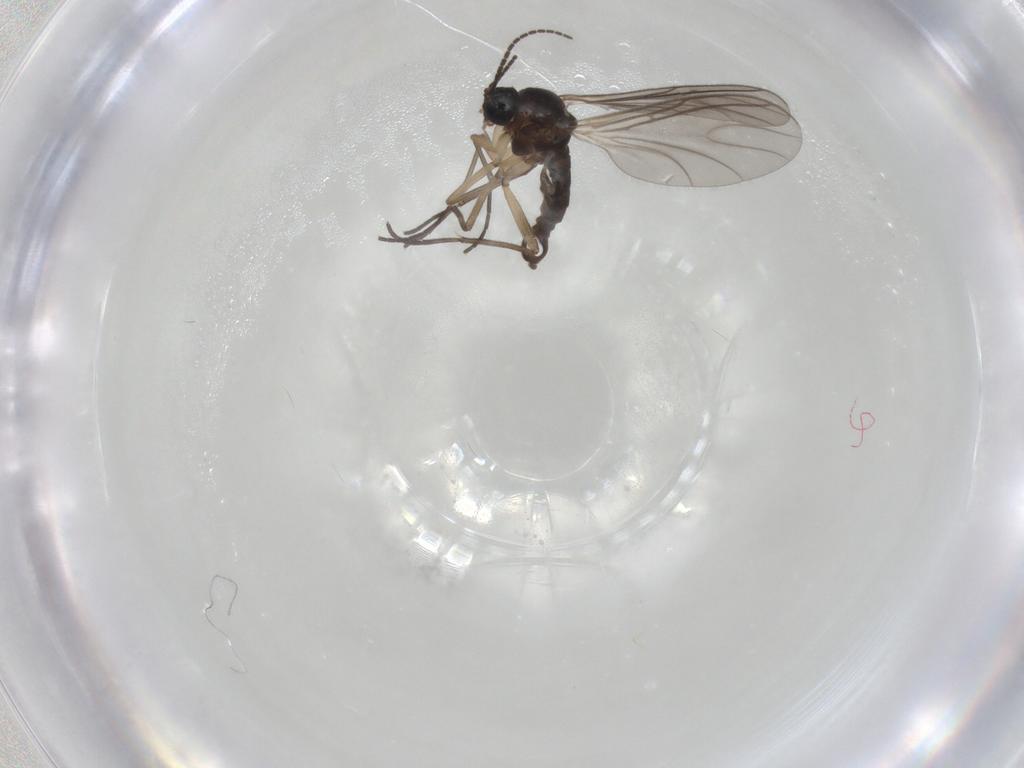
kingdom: Animalia
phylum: Arthropoda
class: Insecta
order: Diptera
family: Sciaridae
